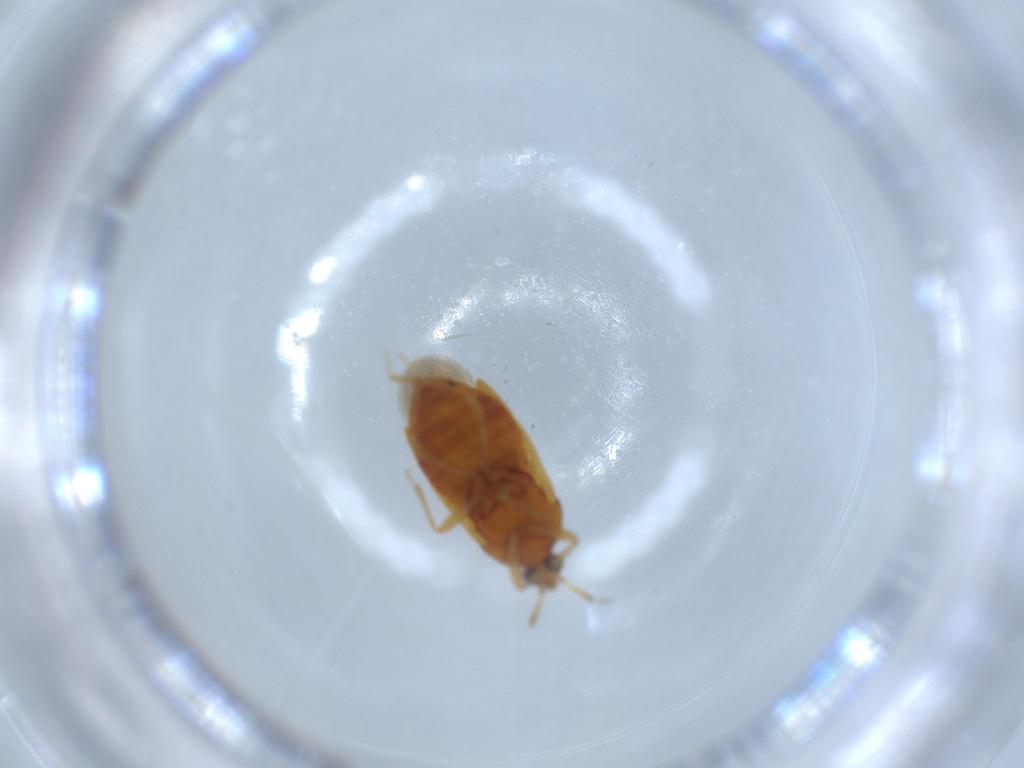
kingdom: Animalia
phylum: Arthropoda
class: Insecta
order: Hemiptera
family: Anthocoridae
